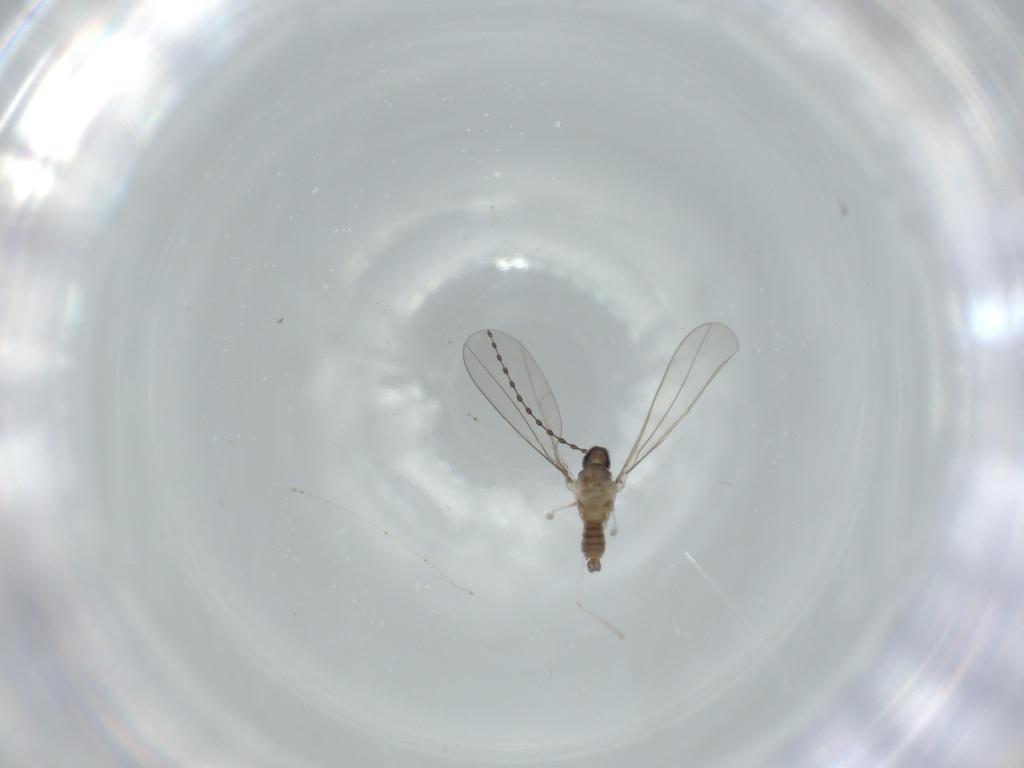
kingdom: Animalia
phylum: Arthropoda
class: Insecta
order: Diptera
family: Cecidomyiidae
